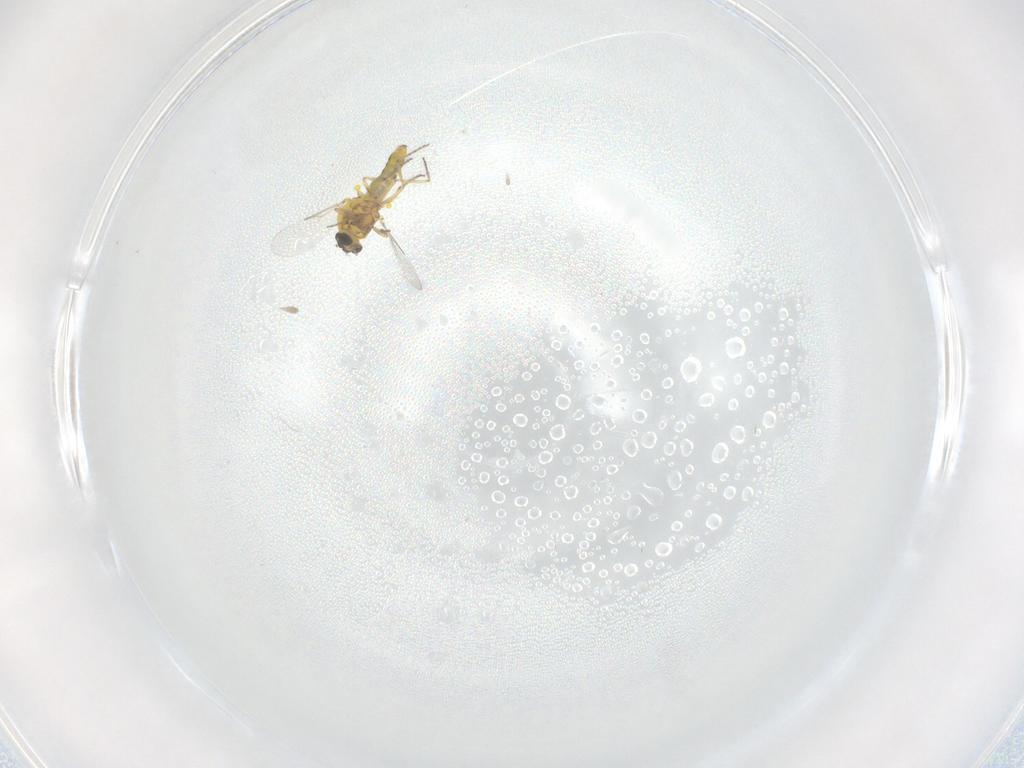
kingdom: Animalia
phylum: Arthropoda
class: Insecta
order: Diptera
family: Ceratopogonidae
